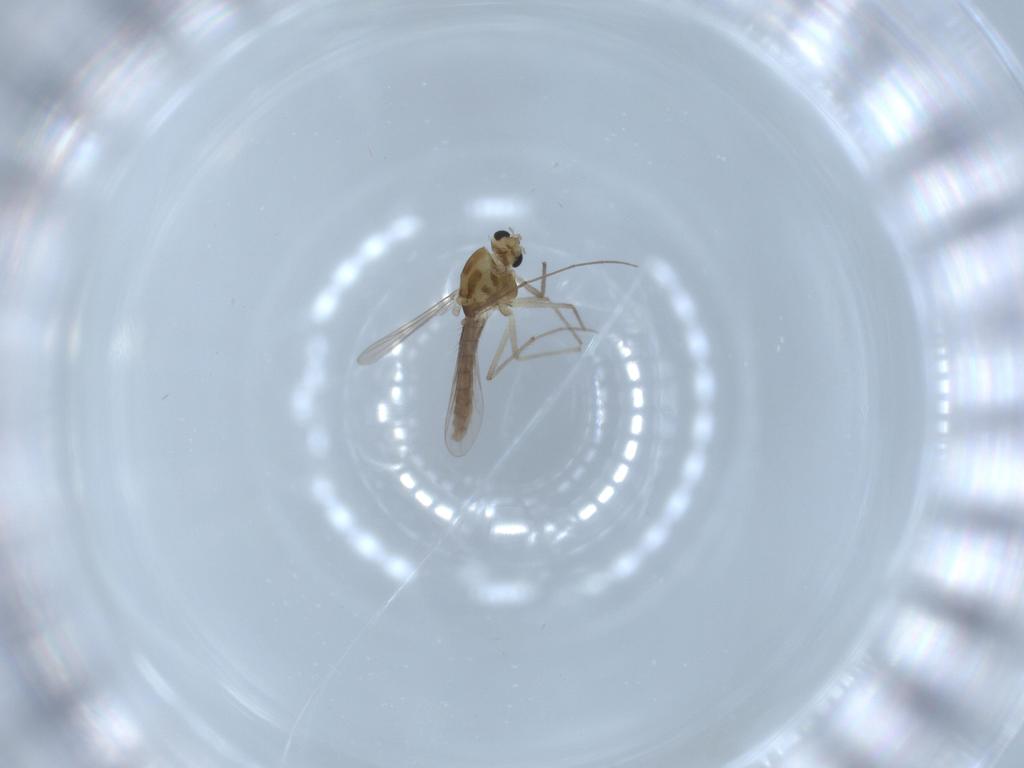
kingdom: Animalia
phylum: Arthropoda
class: Insecta
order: Diptera
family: Chironomidae
